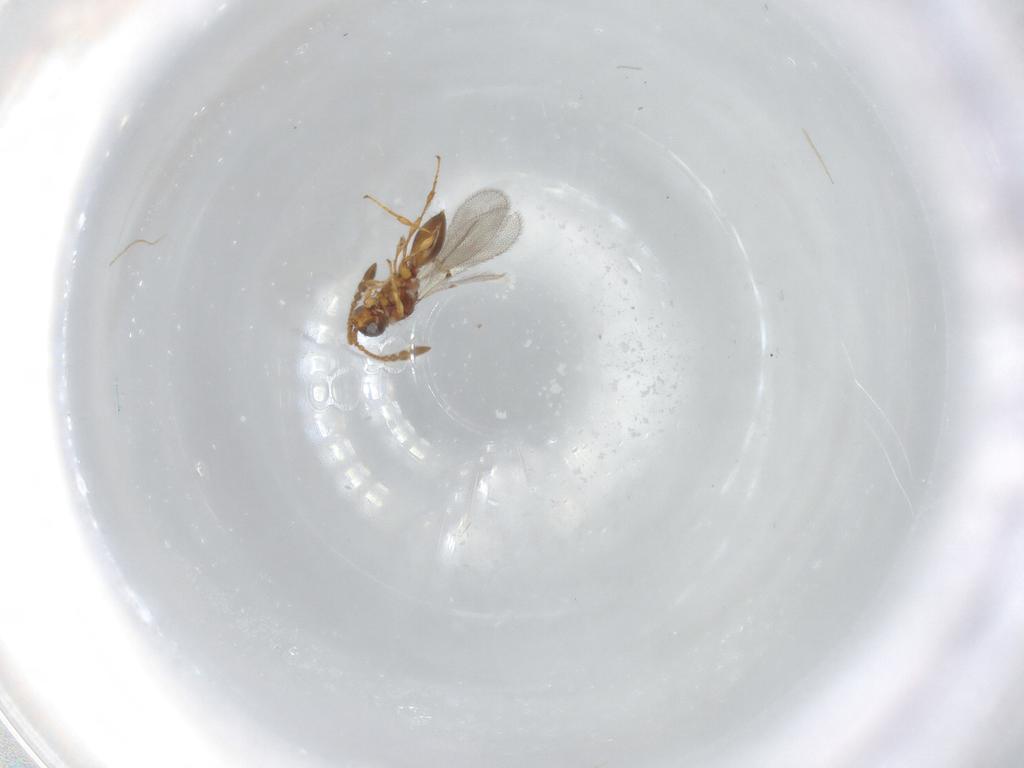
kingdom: Animalia
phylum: Arthropoda
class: Insecta
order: Hymenoptera
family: Diapriidae
